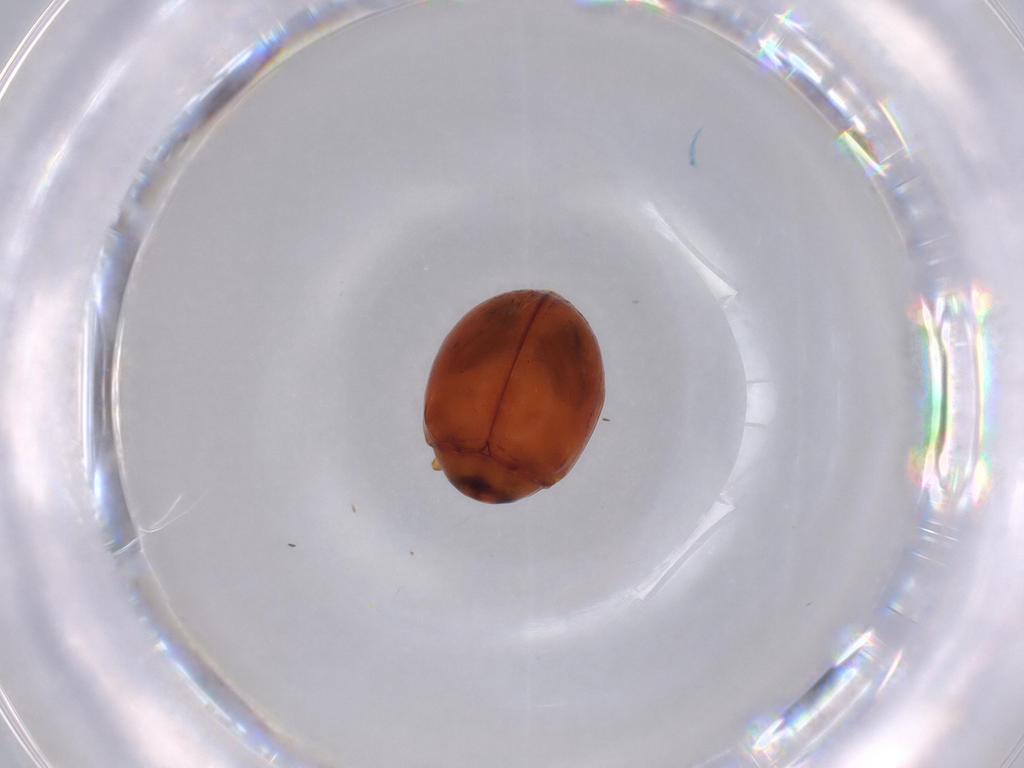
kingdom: Animalia
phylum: Arthropoda
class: Insecta
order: Coleoptera
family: Coccinellidae
